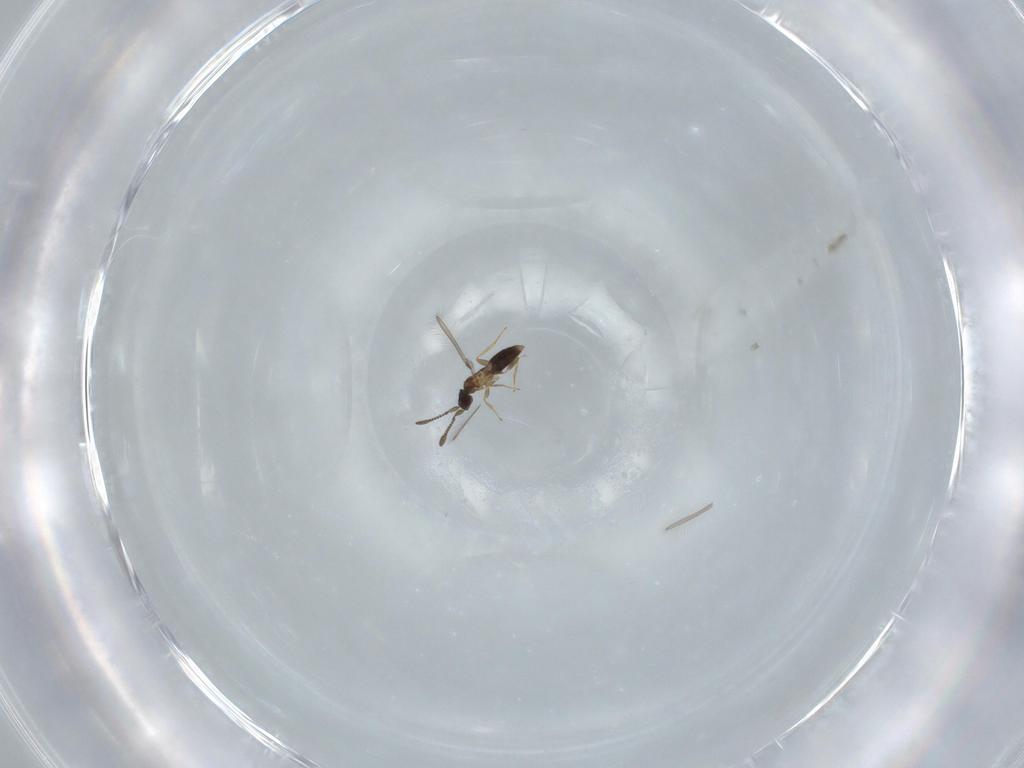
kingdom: Animalia
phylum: Arthropoda
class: Insecta
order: Hymenoptera
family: Mymaridae
